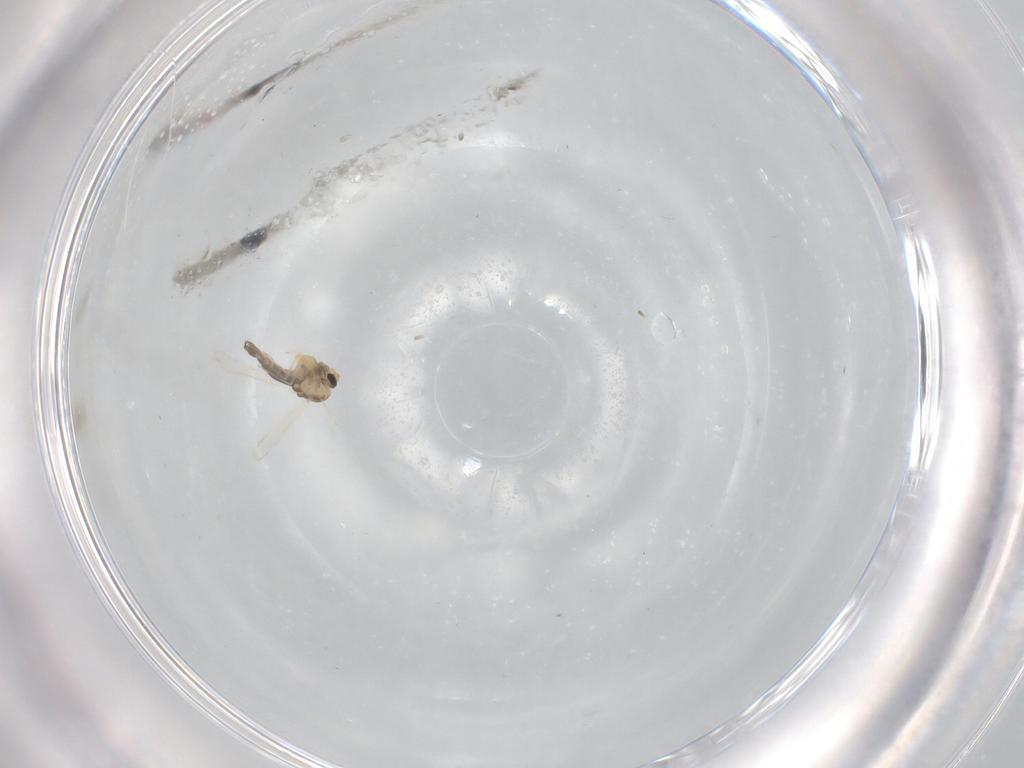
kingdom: Animalia
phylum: Arthropoda
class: Insecta
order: Diptera
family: Chironomidae
